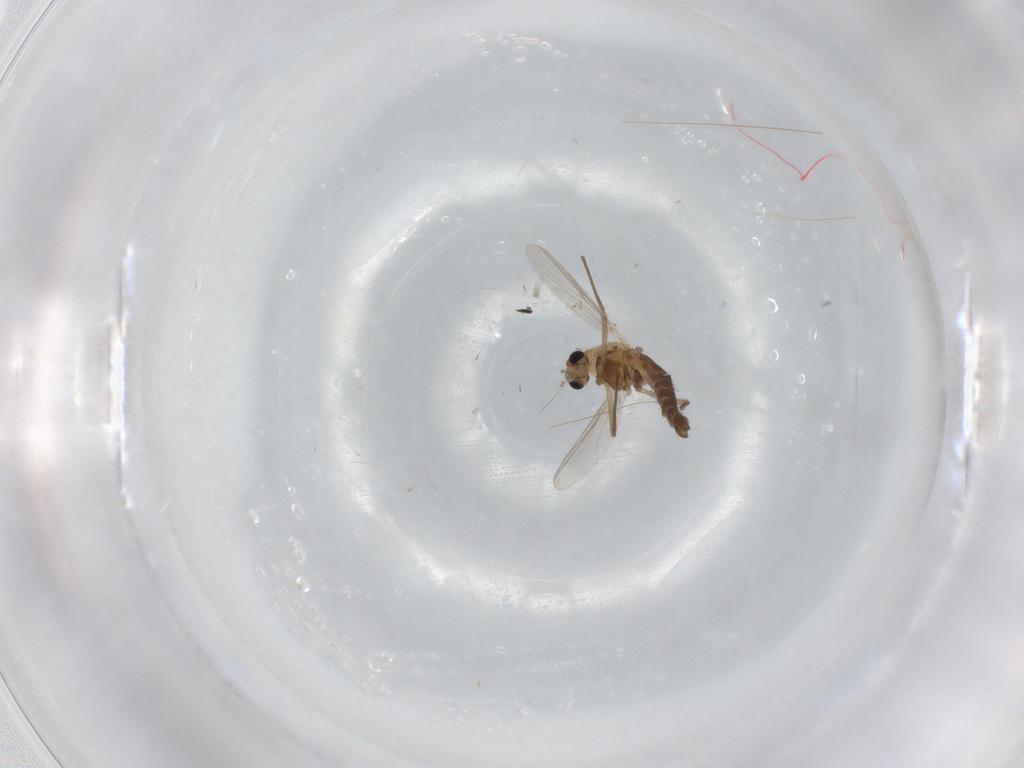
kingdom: Animalia
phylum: Arthropoda
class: Insecta
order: Diptera
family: Chironomidae
